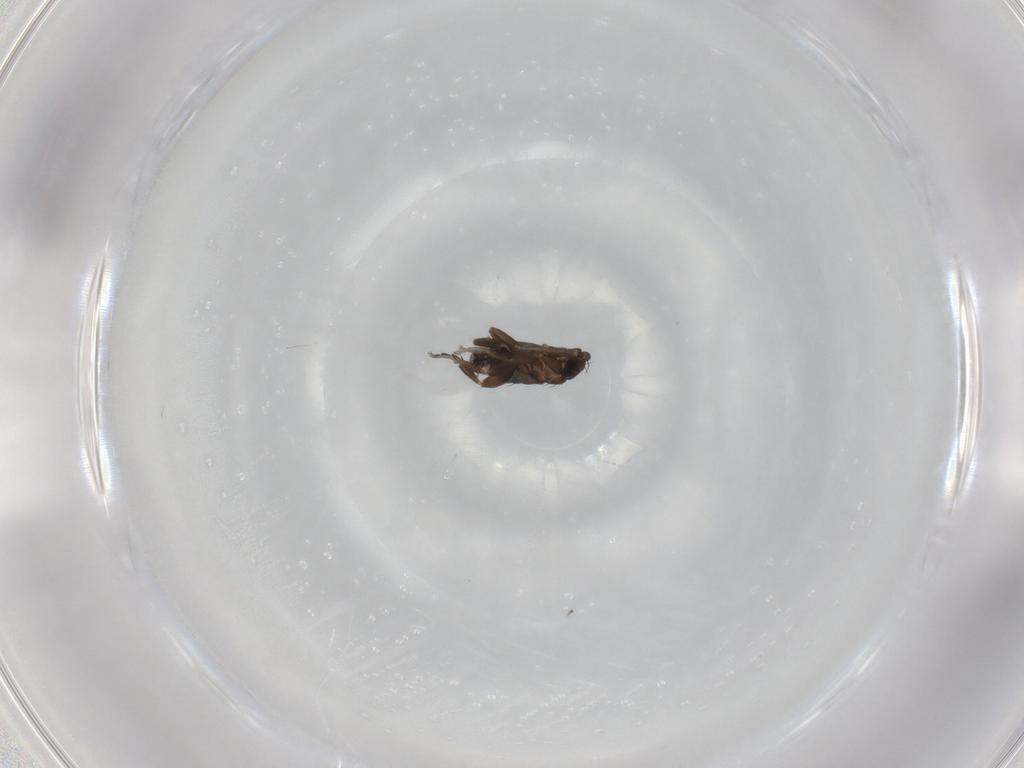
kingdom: Animalia
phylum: Arthropoda
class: Insecta
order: Diptera
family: Phoridae
